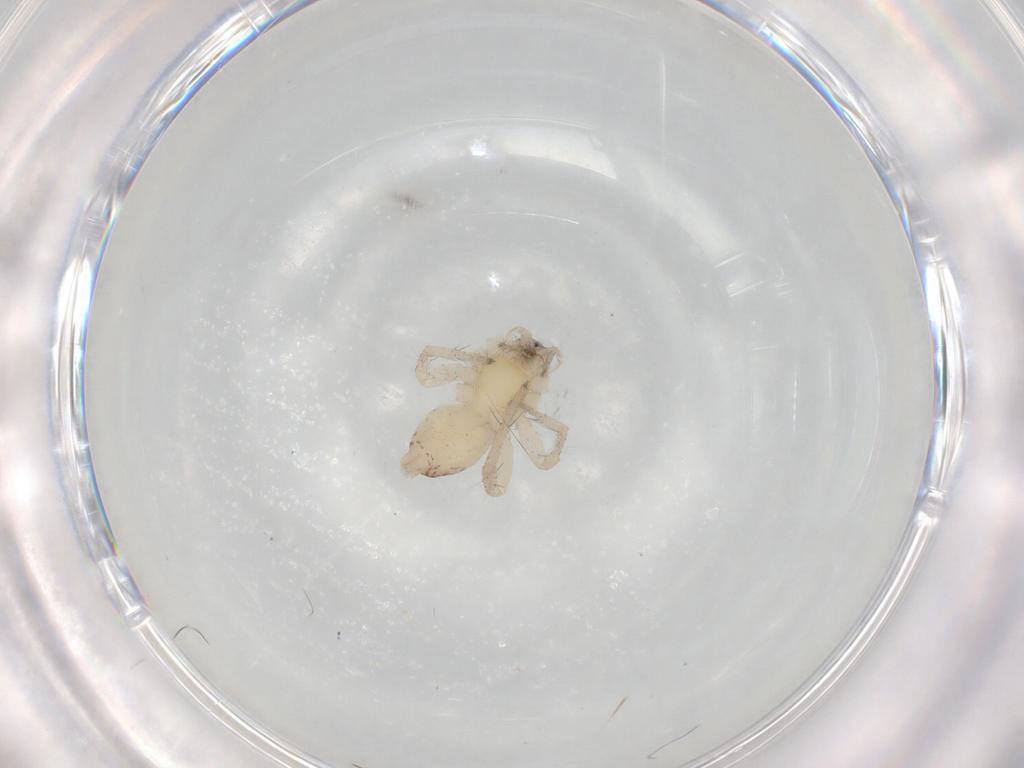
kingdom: Animalia
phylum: Arthropoda
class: Arachnida
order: Araneae
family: Anyphaenidae
